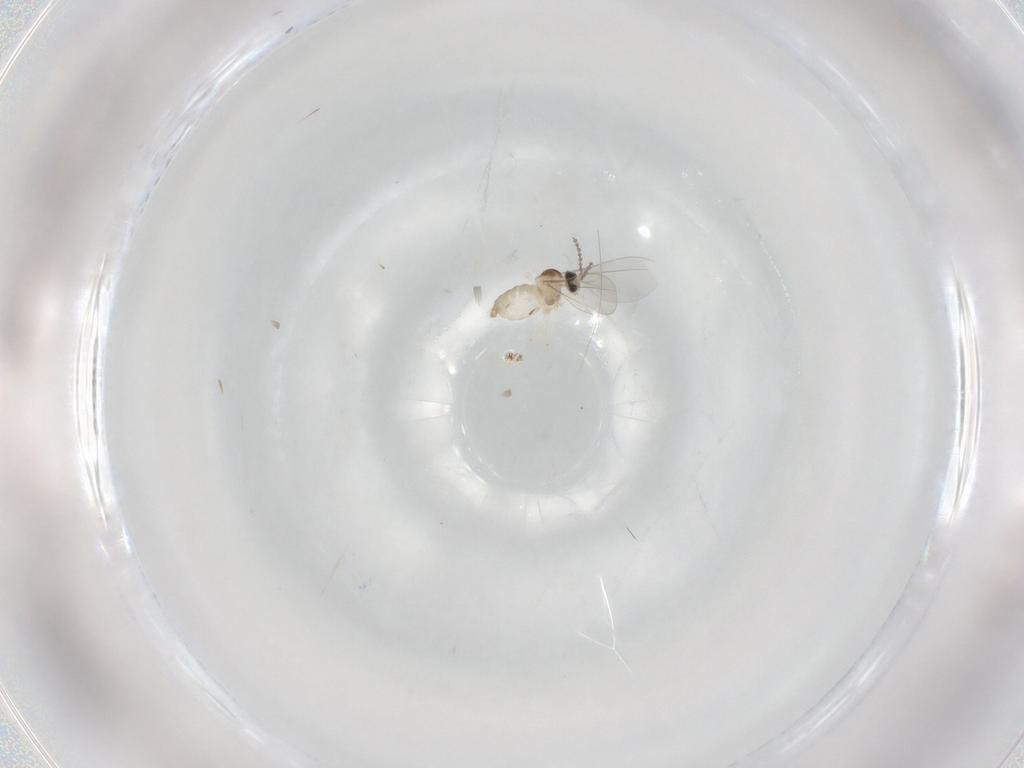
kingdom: Animalia
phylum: Arthropoda
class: Insecta
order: Diptera
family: Cecidomyiidae
